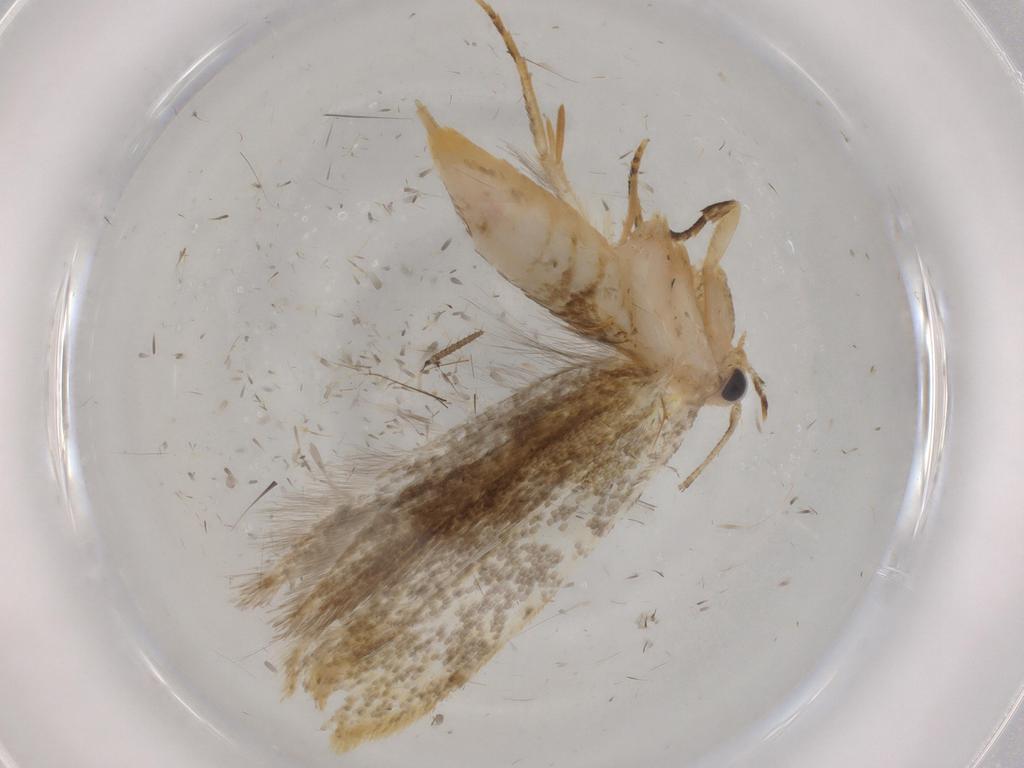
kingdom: Animalia
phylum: Arthropoda
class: Insecta
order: Lepidoptera
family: Tineidae
